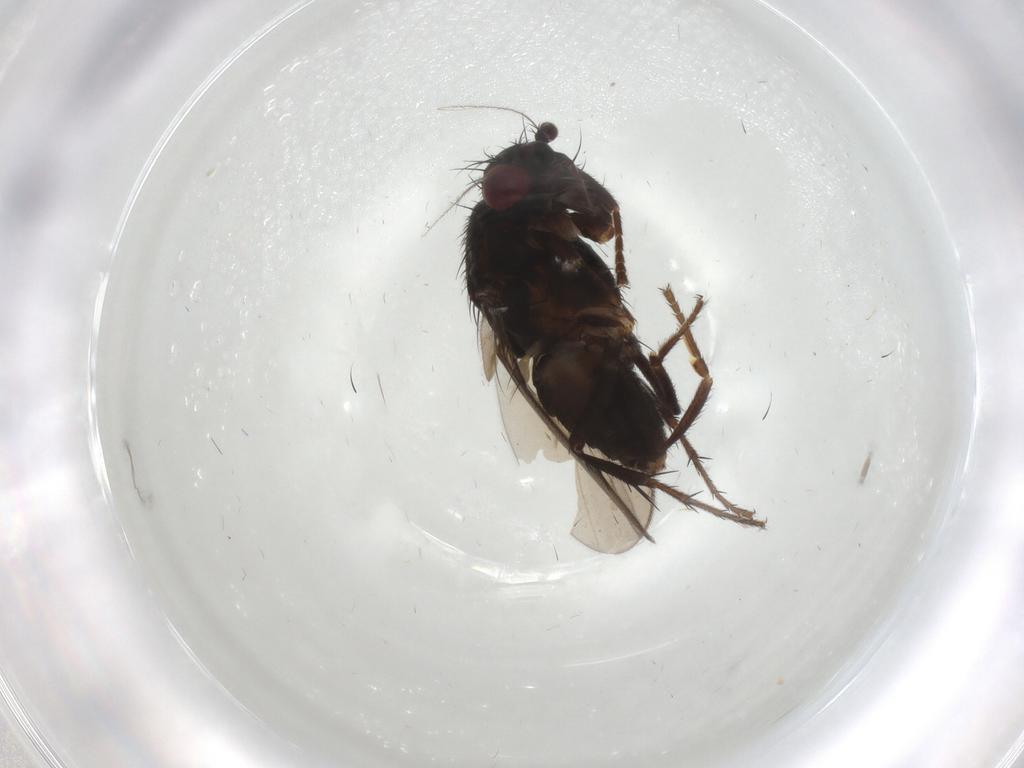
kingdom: Animalia
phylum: Arthropoda
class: Insecta
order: Diptera
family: Sphaeroceridae
